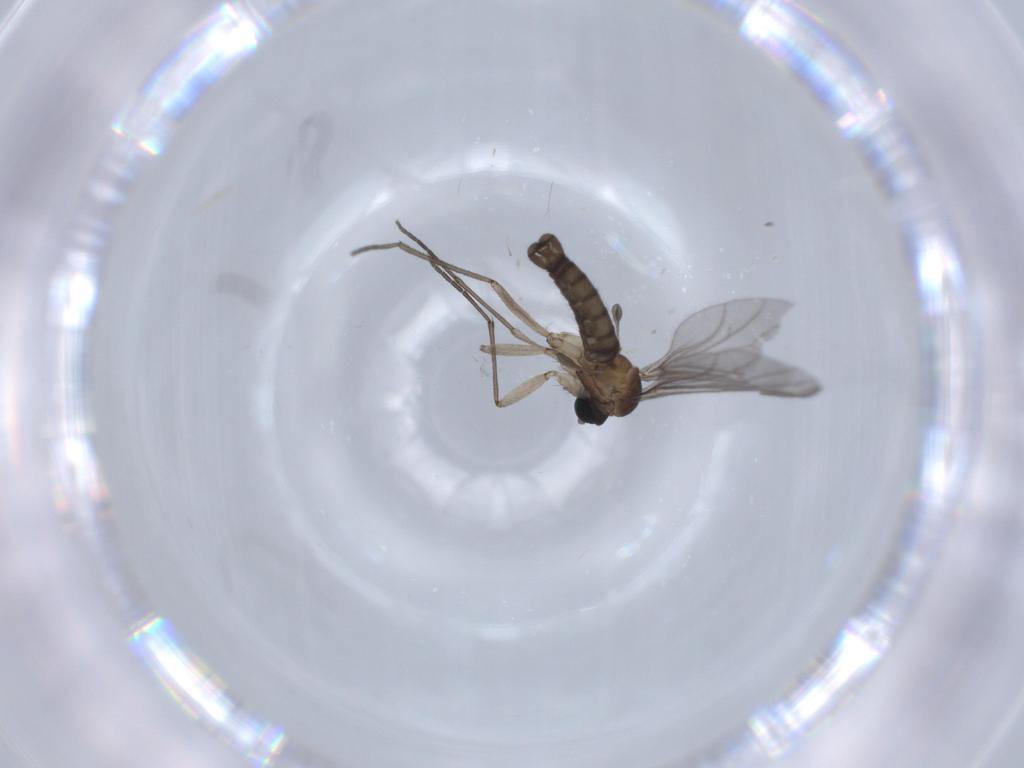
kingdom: Animalia
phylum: Arthropoda
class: Insecta
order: Diptera
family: Sciaridae
